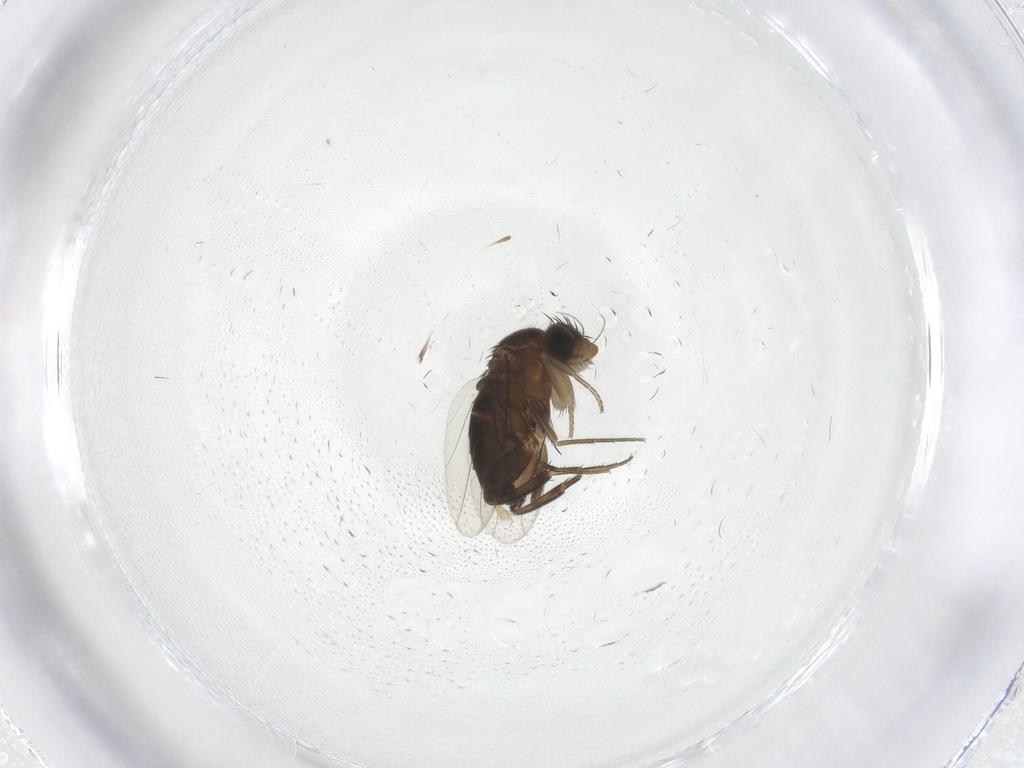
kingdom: Animalia
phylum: Arthropoda
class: Insecta
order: Diptera
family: Phoridae
